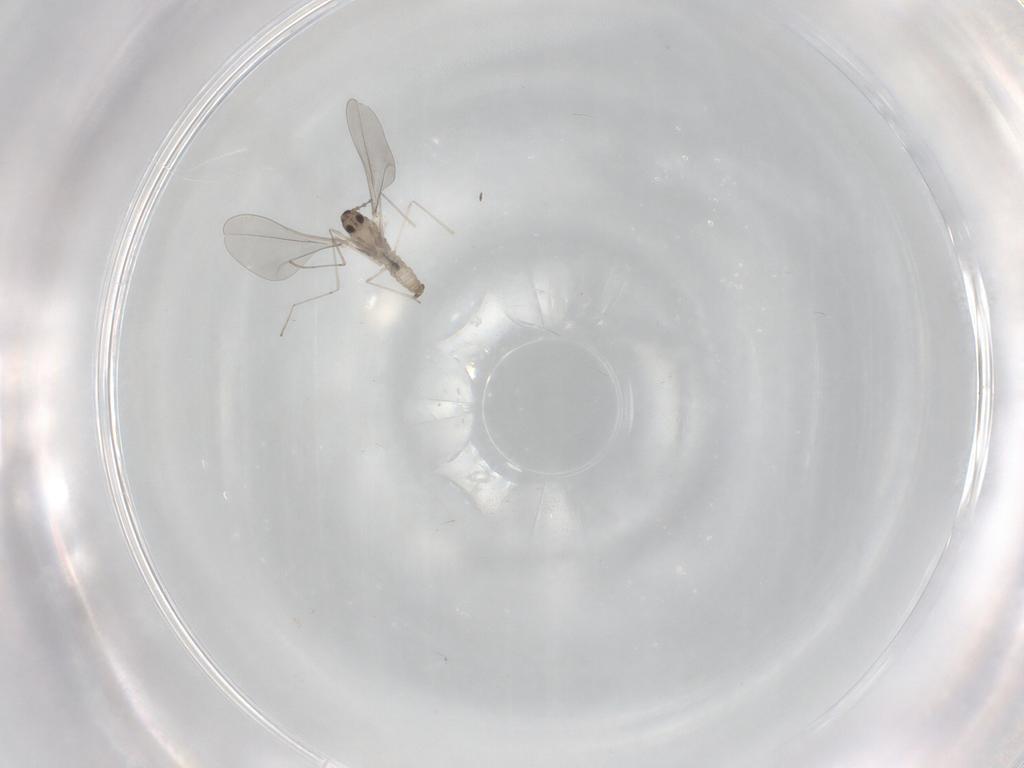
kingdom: Animalia
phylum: Arthropoda
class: Insecta
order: Diptera
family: Cecidomyiidae
